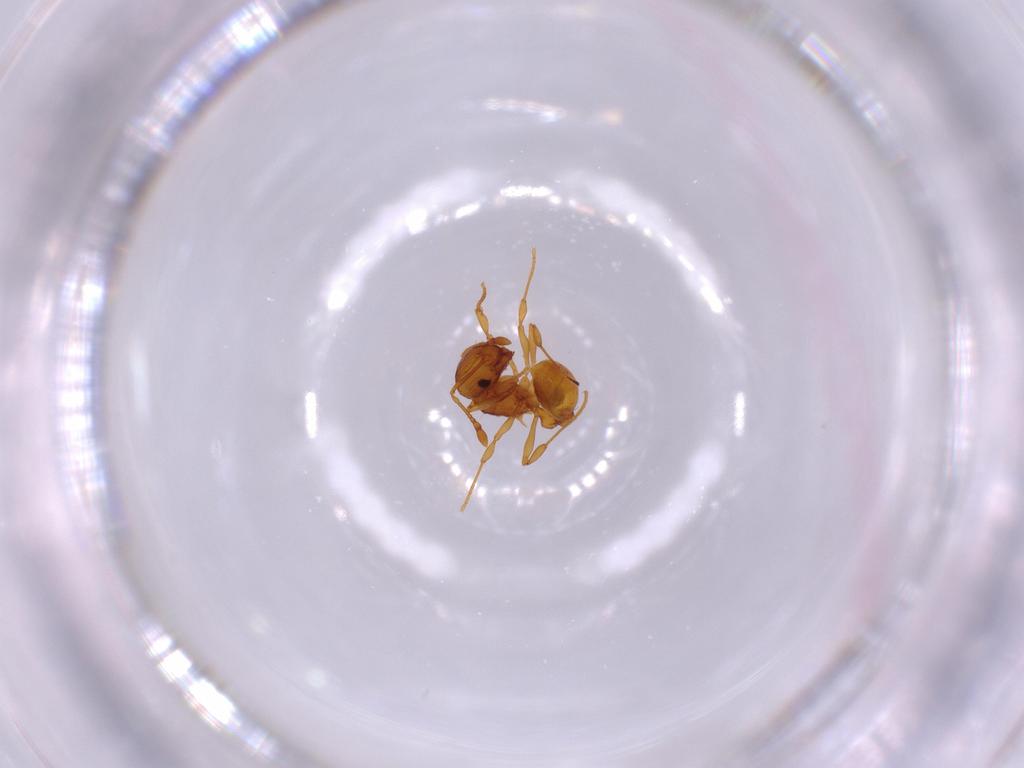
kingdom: Animalia
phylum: Arthropoda
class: Insecta
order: Hymenoptera
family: Formicidae
